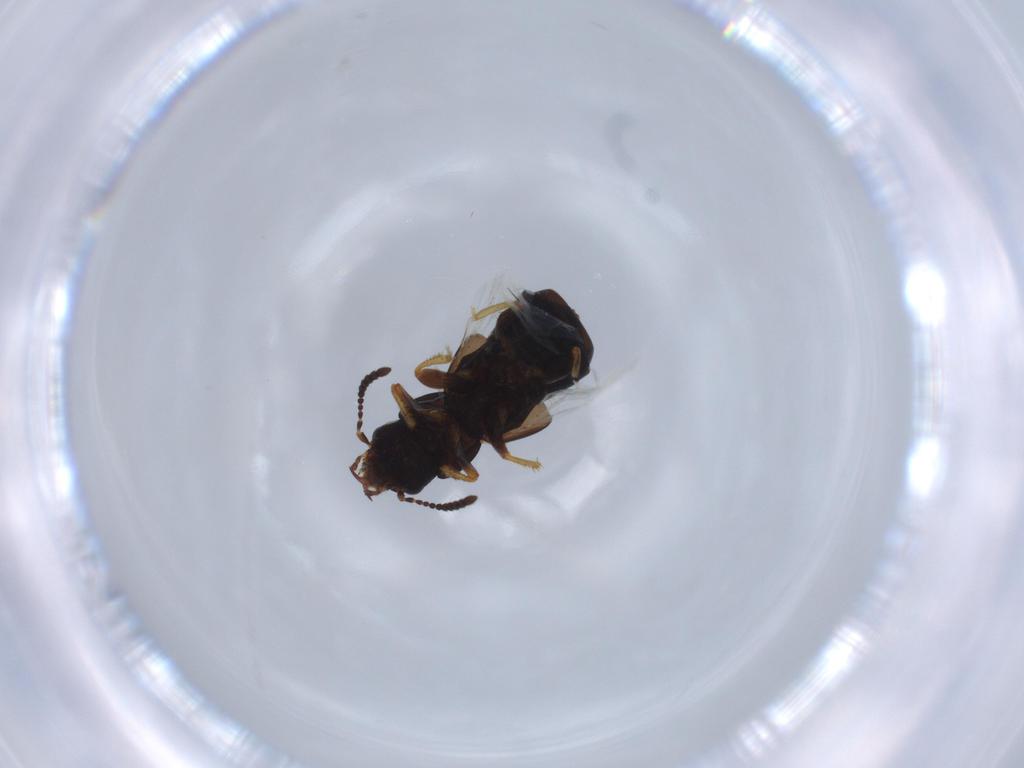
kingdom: Animalia
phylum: Arthropoda
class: Insecta
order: Coleoptera
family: Staphylinidae
